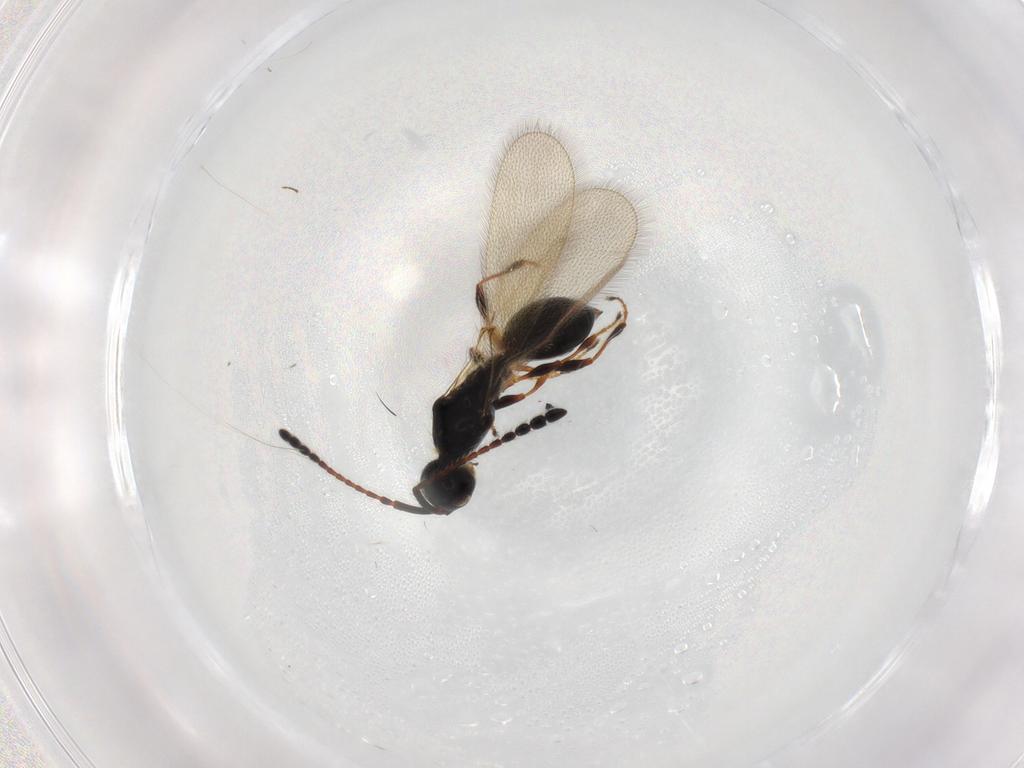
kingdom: Animalia
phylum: Arthropoda
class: Insecta
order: Hymenoptera
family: Diapriidae
